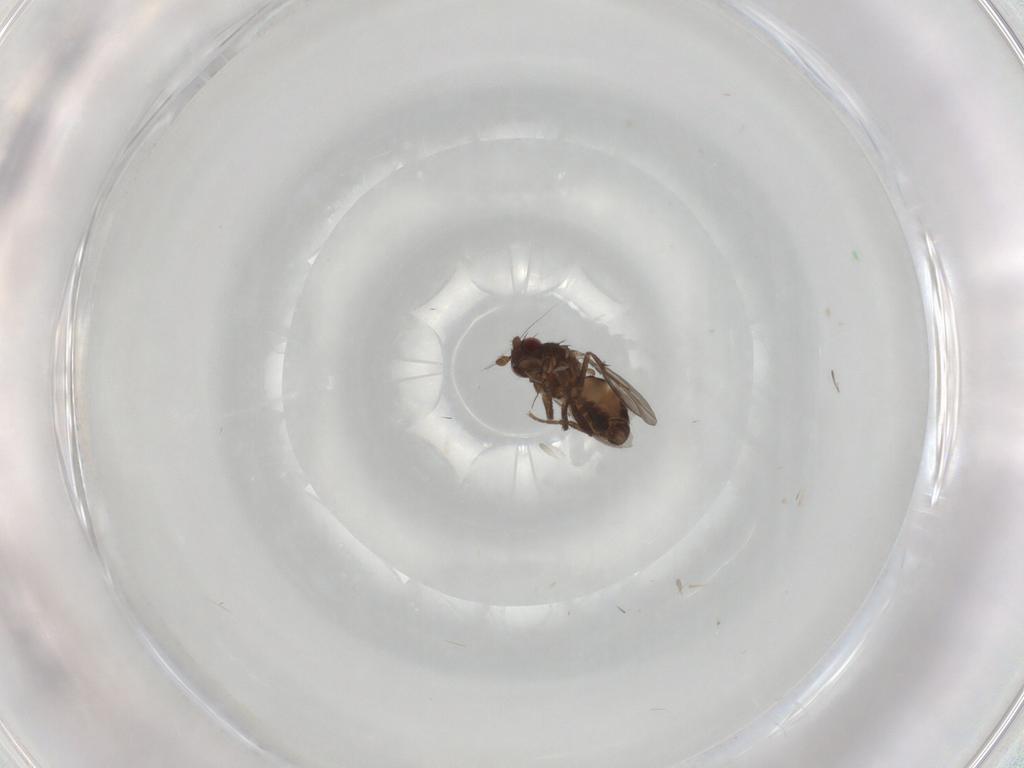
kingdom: Animalia
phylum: Arthropoda
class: Insecta
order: Diptera
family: Sphaeroceridae
